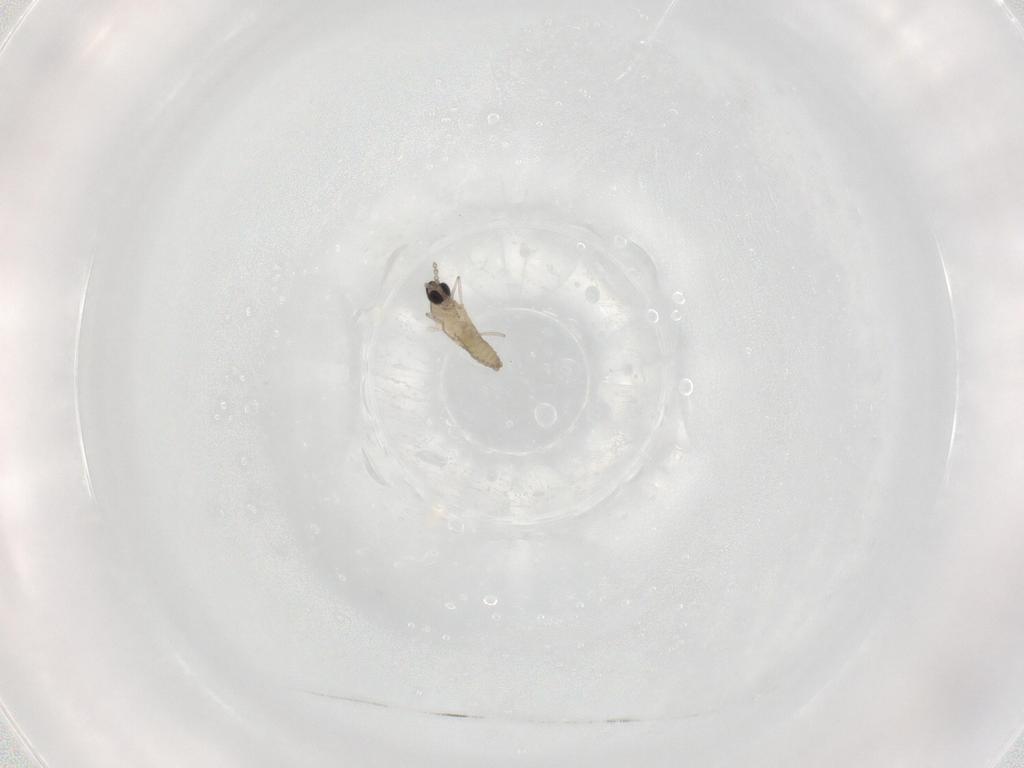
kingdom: Animalia
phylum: Arthropoda
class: Insecta
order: Diptera
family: Cecidomyiidae
